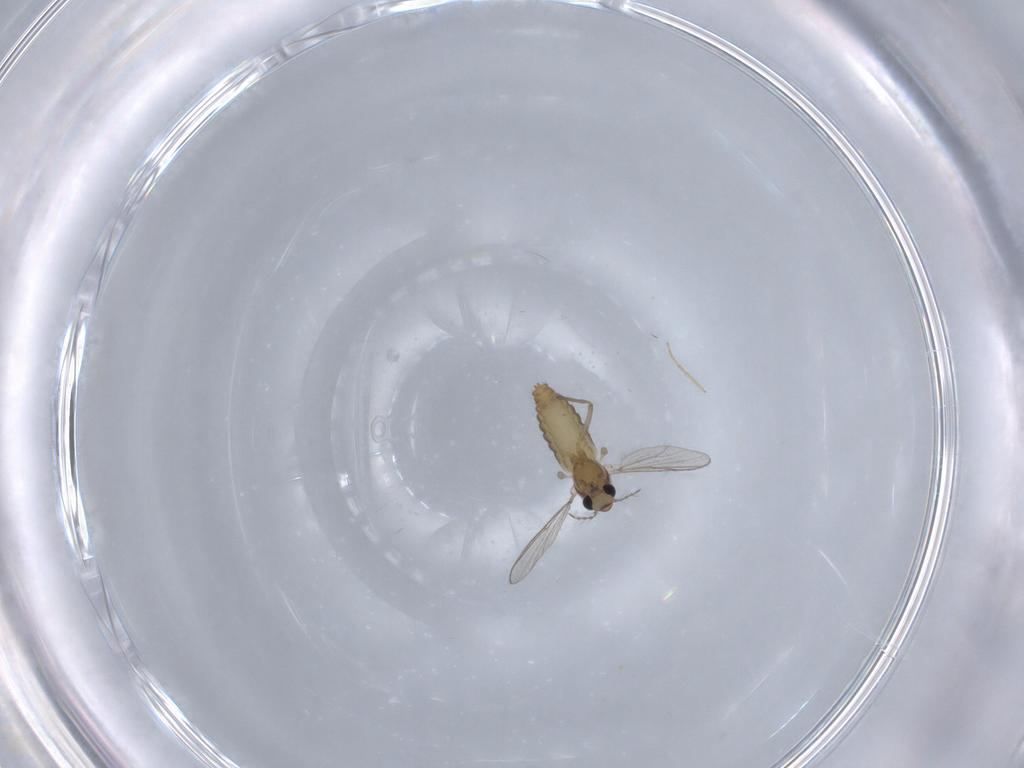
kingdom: Animalia
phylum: Arthropoda
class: Insecta
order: Diptera
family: Chironomidae
